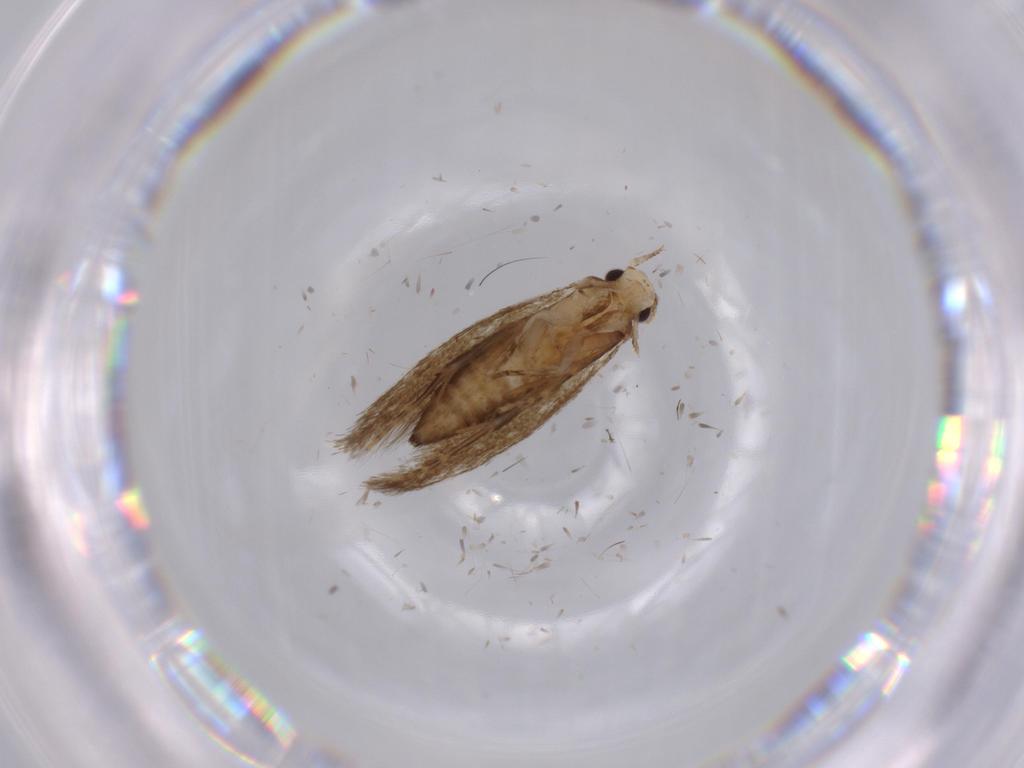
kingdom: Animalia
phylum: Arthropoda
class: Insecta
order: Lepidoptera
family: Tineidae
